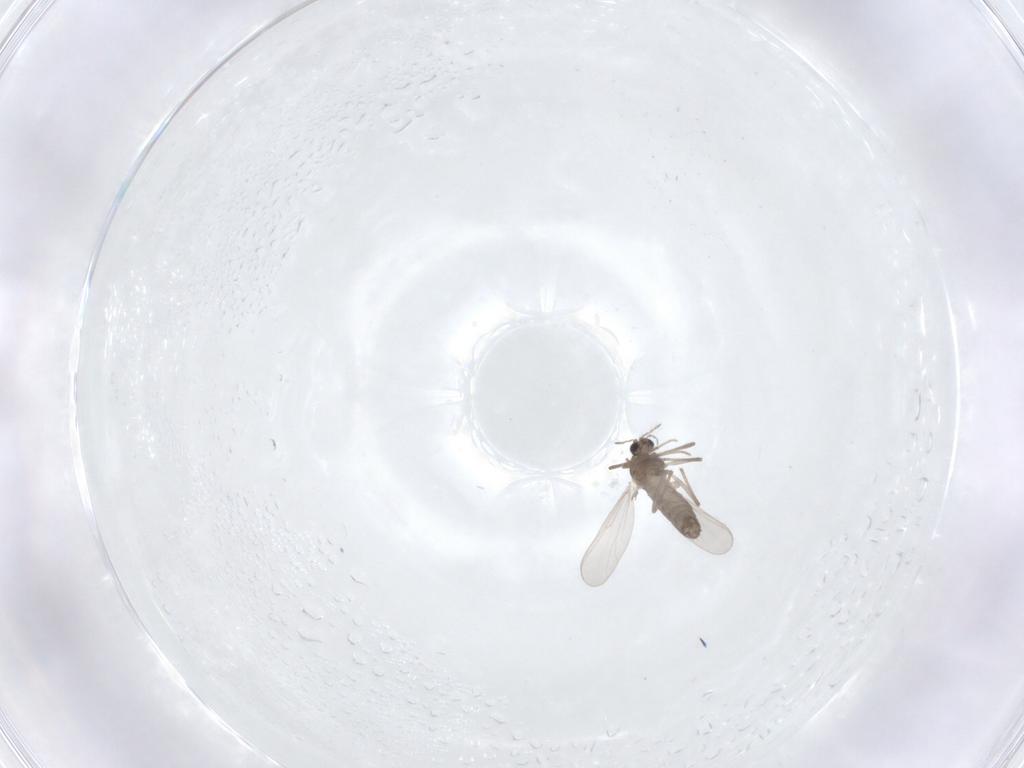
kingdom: Animalia
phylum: Arthropoda
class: Insecta
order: Diptera
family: Chironomidae
